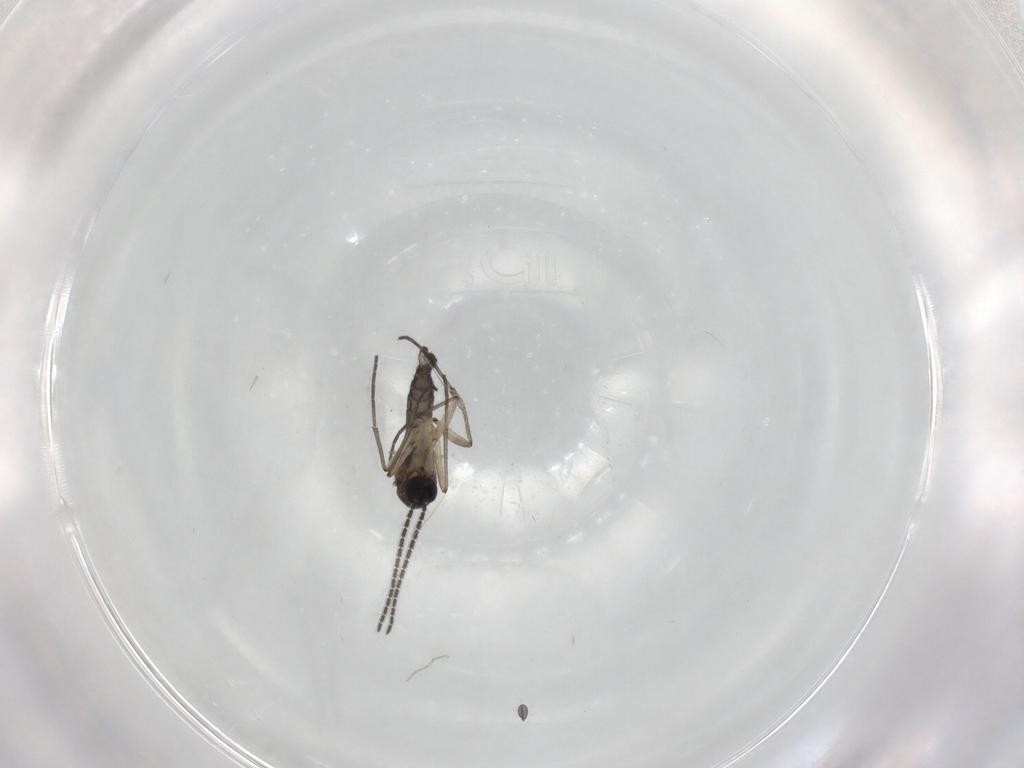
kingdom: Animalia
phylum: Arthropoda
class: Insecta
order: Diptera
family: Sciaridae
